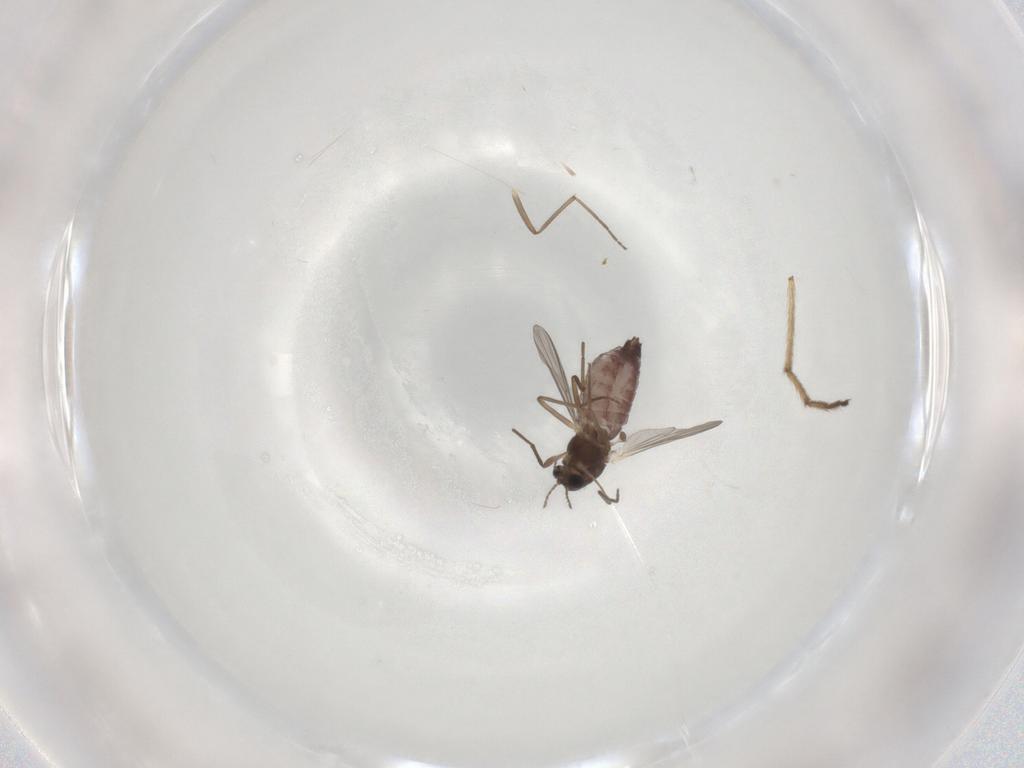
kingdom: Animalia
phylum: Arthropoda
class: Insecta
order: Diptera
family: Chironomidae
